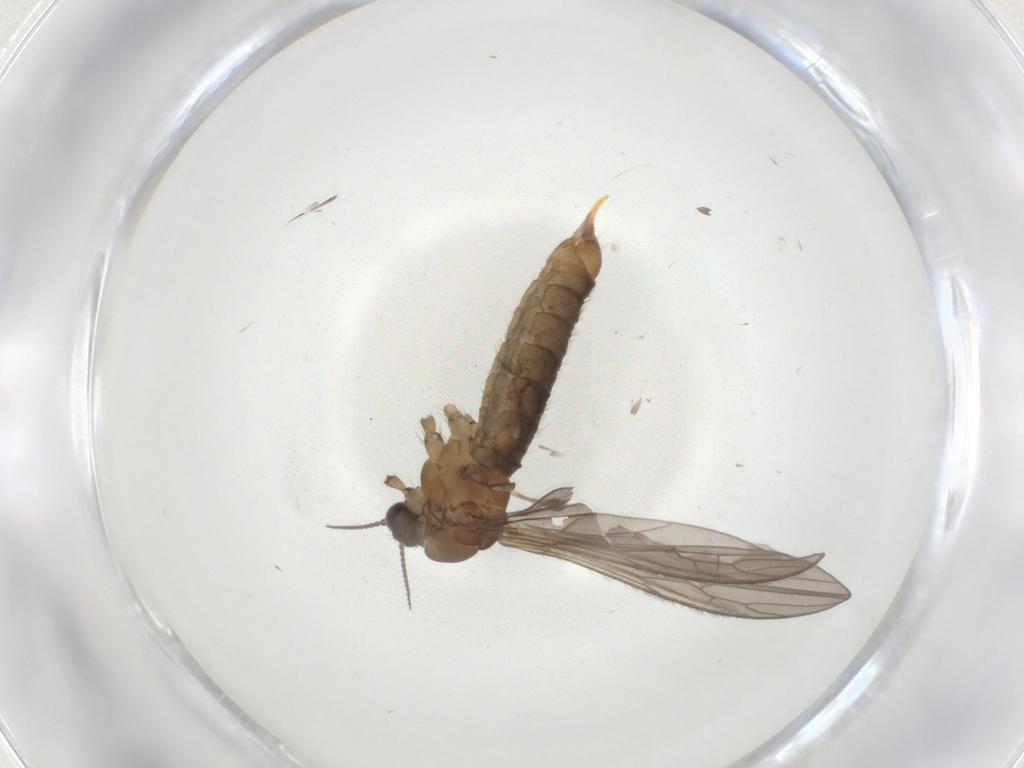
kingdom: Animalia
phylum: Arthropoda
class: Insecta
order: Diptera
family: Limoniidae
